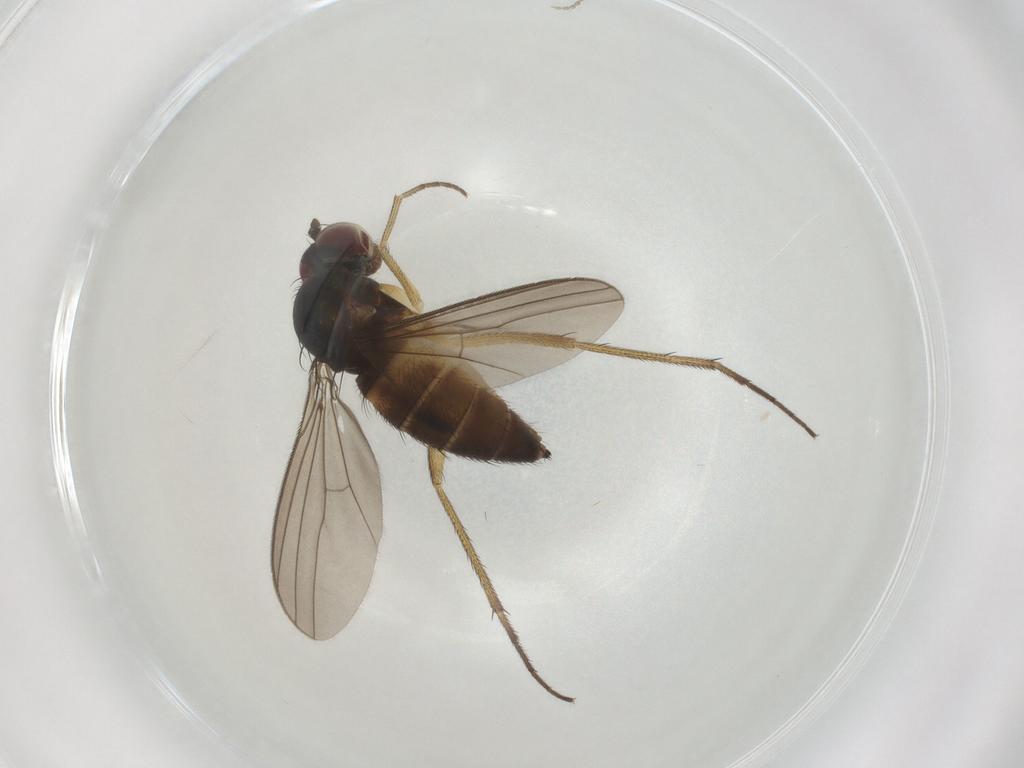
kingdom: Animalia
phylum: Arthropoda
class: Insecta
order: Diptera
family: Dolichopodidae
